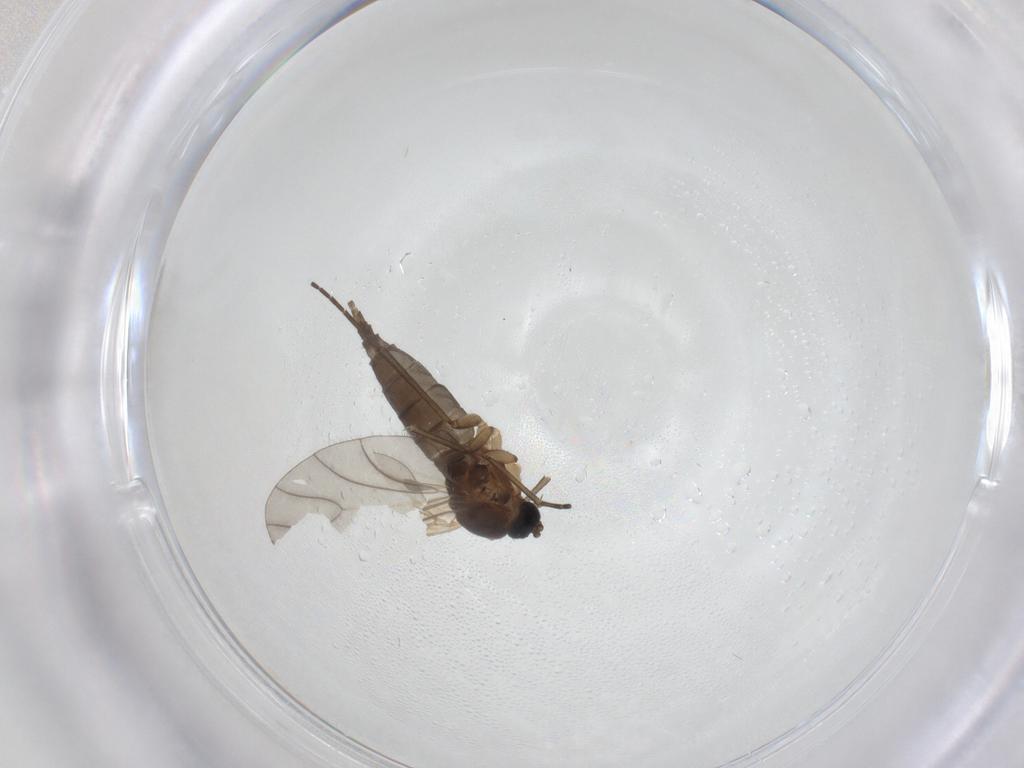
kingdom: Animalia
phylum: Arthropoda
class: Insecta
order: Diptera
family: Sciaridae
